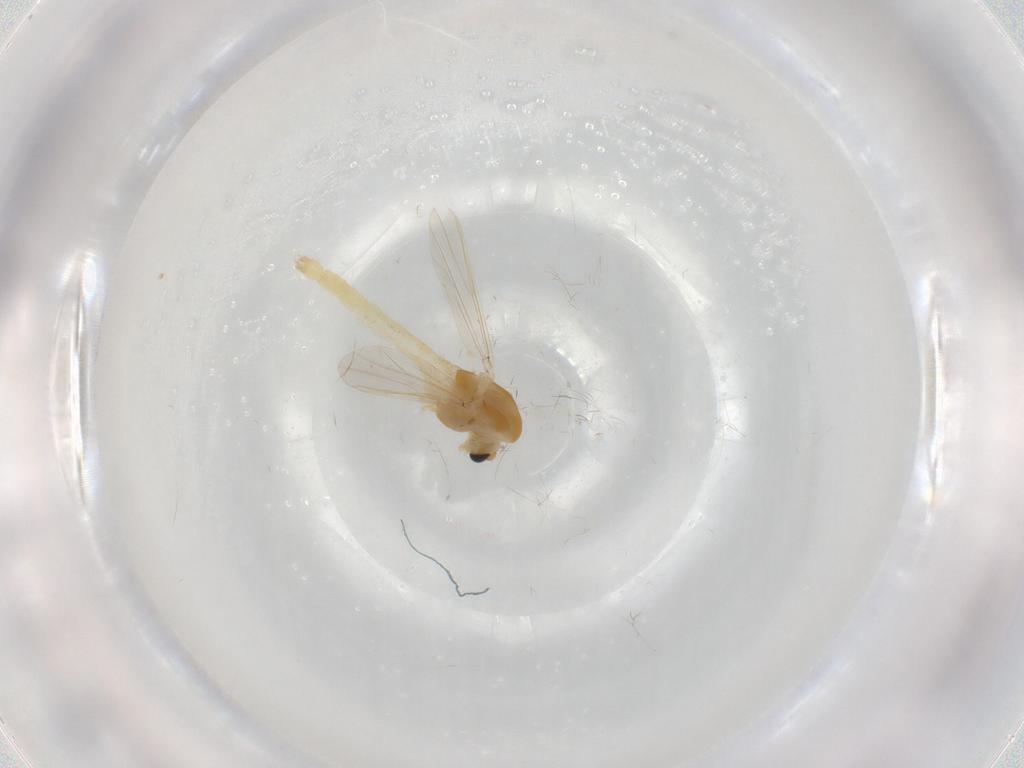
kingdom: Animalia
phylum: Arthropoda
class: Insecta
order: Diptera
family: Chironomidae
